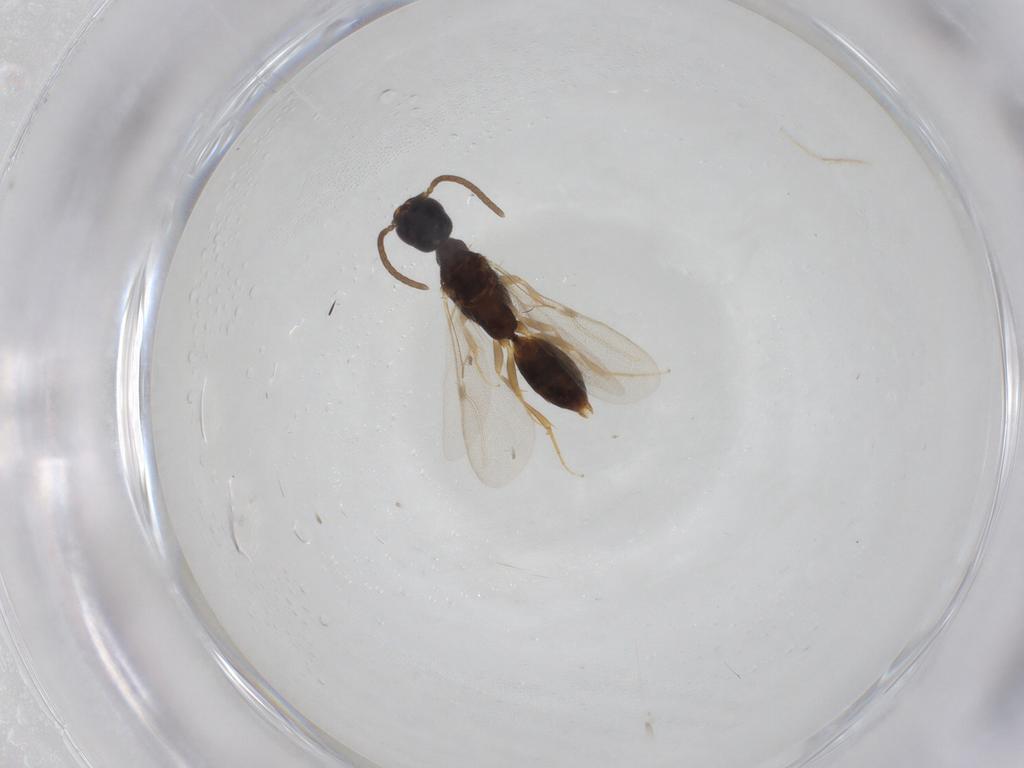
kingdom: Animalia
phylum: Arthropoda
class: Insecta
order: Hymenoptera
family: Bethylidae
